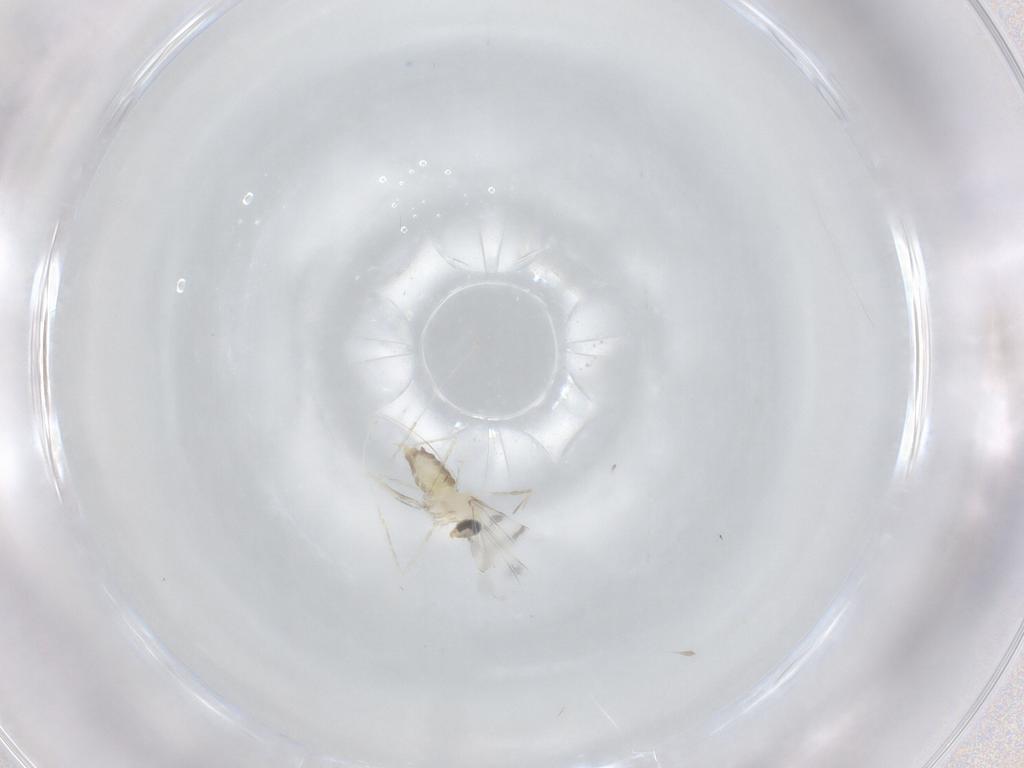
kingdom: Animalia
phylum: Arthropoda
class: Insecta
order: Diptera
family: Cecidomyiidae
